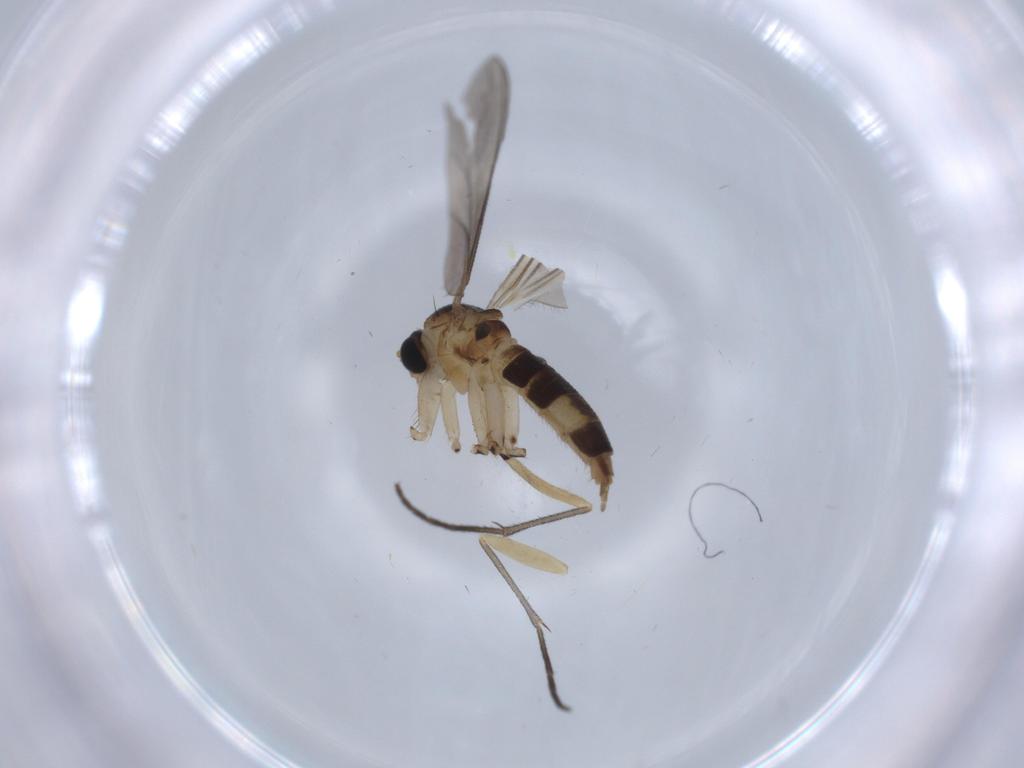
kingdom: Animalia
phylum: Arthropoda
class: Insecta
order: Diptera
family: Sciaridae
